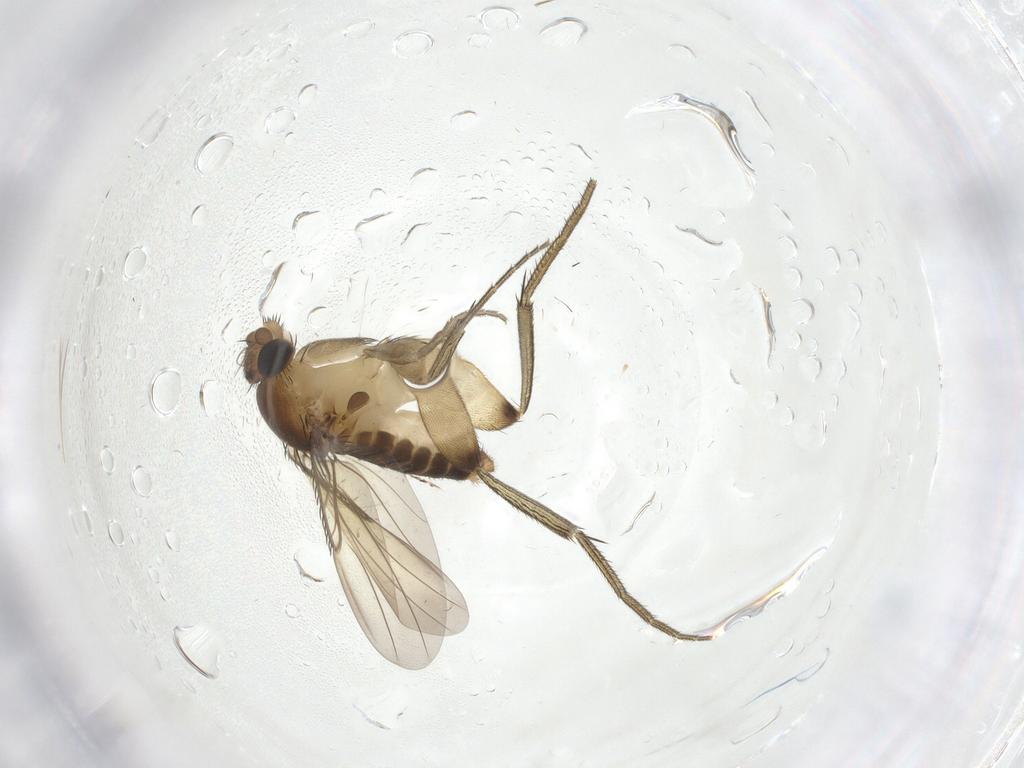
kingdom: Animalia
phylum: Arthropoda
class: Insecta
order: Diptera
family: Phoridae
